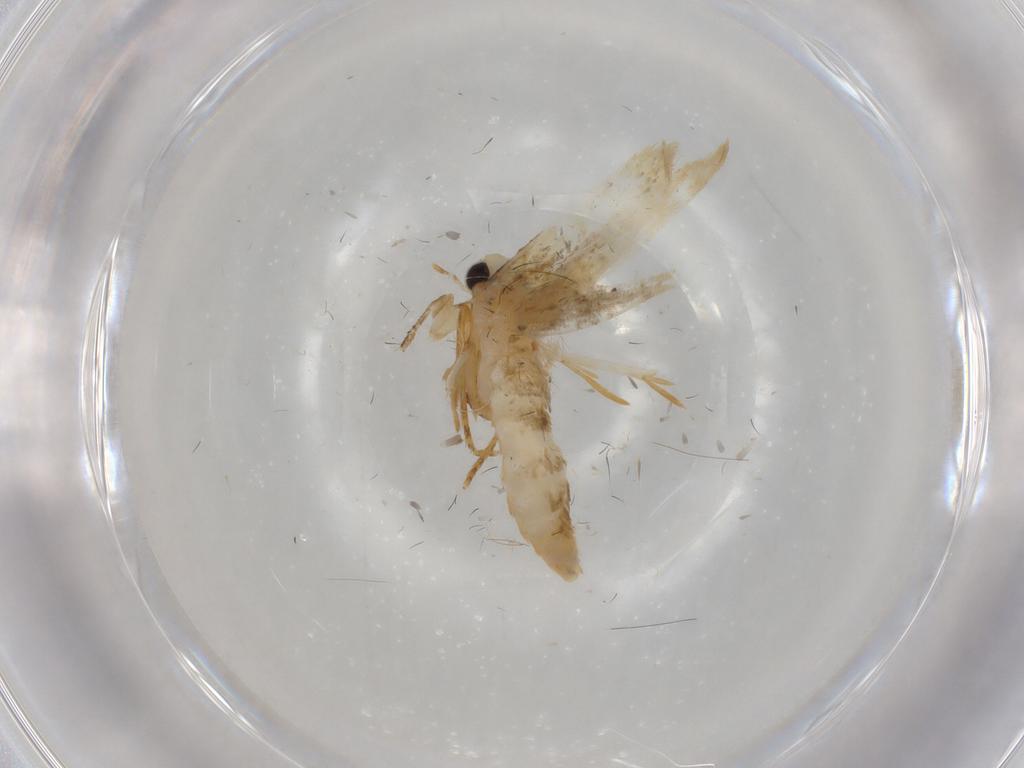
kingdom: Animalia
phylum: Arthropoda
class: Insecta
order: Lepidoptera
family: Tineidae
